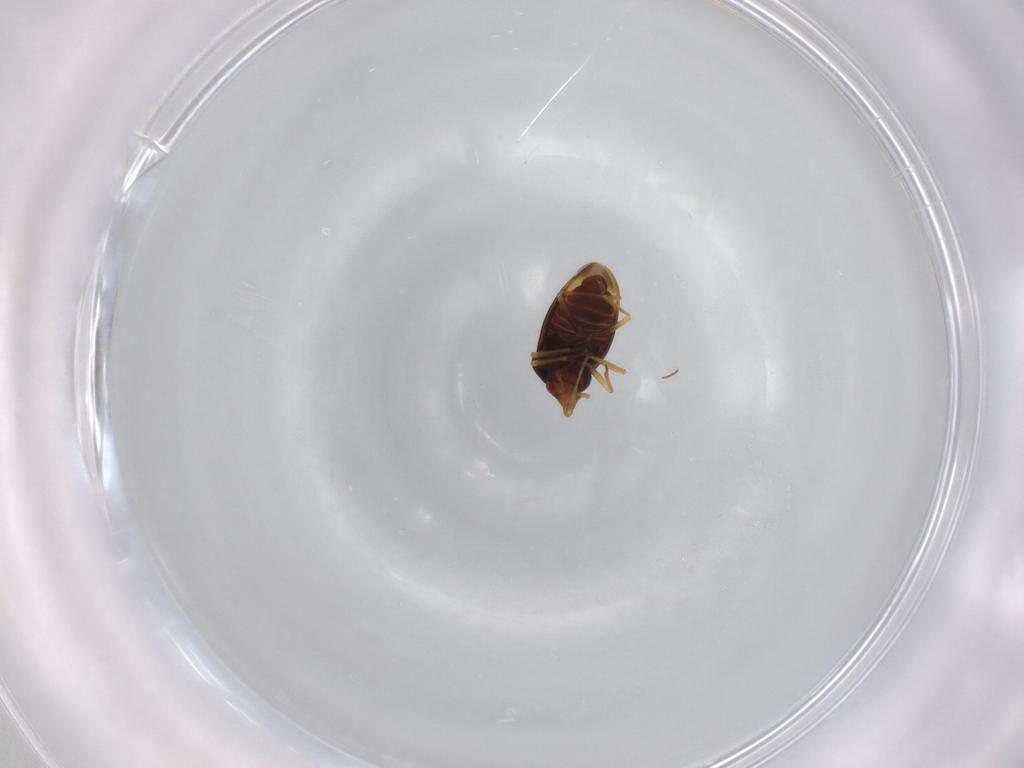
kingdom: Animalia
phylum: Arthropoda
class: Insecta
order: Hemiptera
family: Schizopteridae
